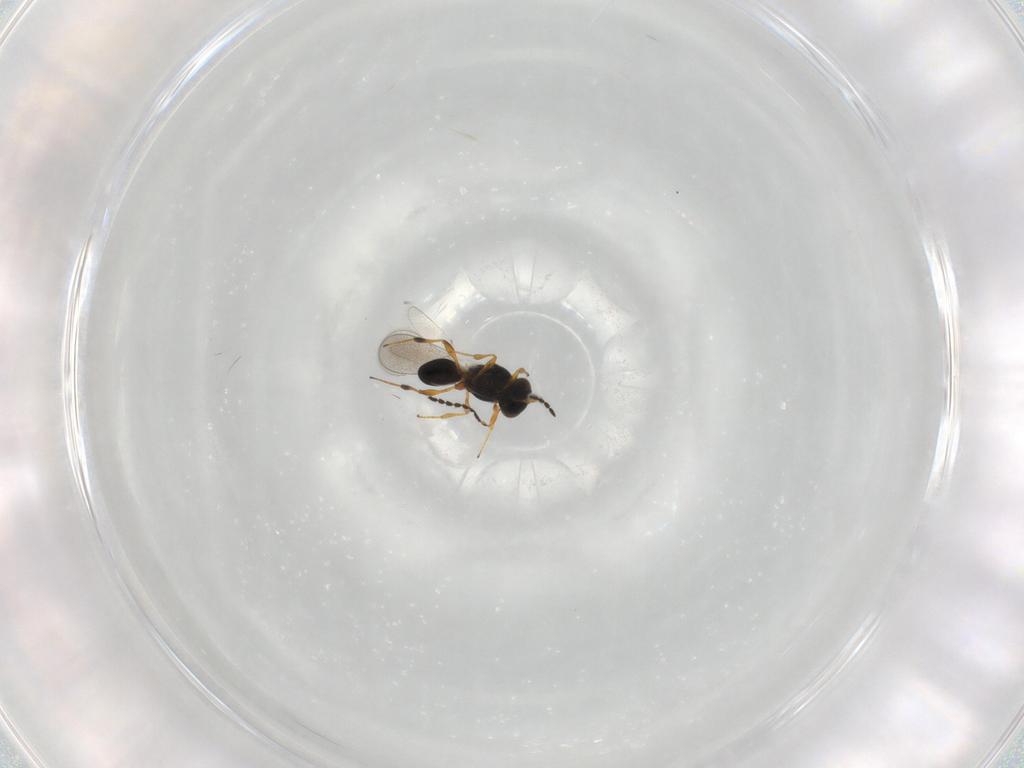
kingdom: Animalia
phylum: Arthropoda
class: Insecta
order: Hymenoptera
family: Platygastridae
